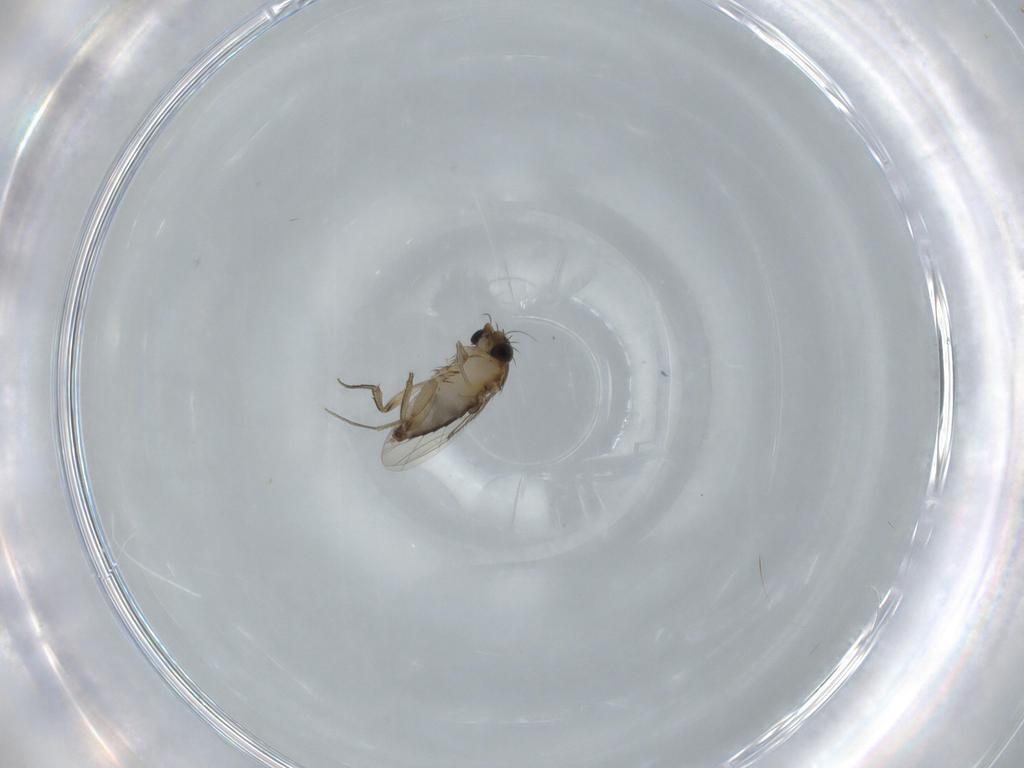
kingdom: Animalia
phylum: Arthropoda
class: Insecta
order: Diptera
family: Phoridae
